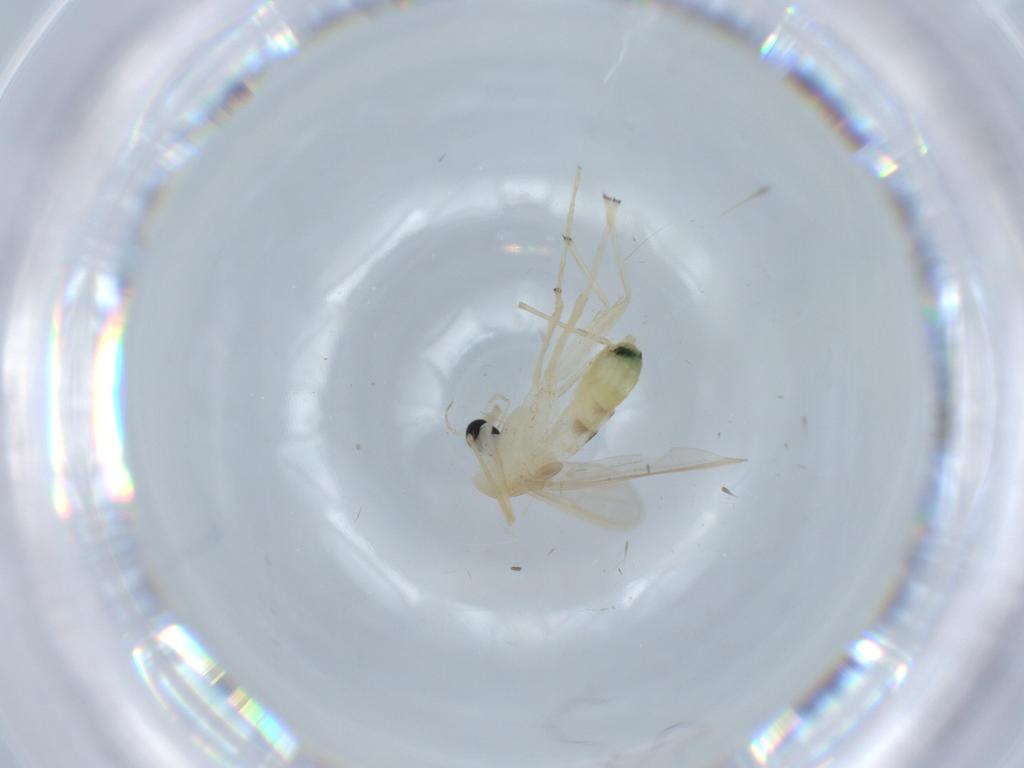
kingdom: Animalia
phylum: Arthropoda
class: Insecta
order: Diptera
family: Chironomidae
